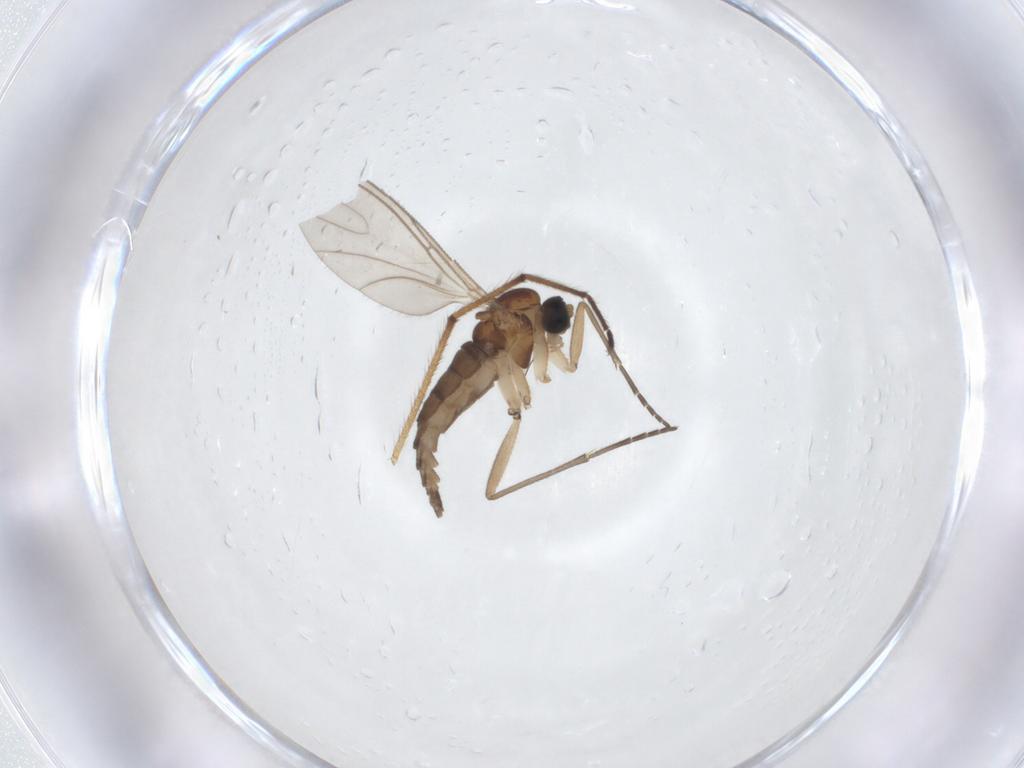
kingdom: Animalia
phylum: Arthropoda
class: Insecta
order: Diptera
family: Sciaridae
